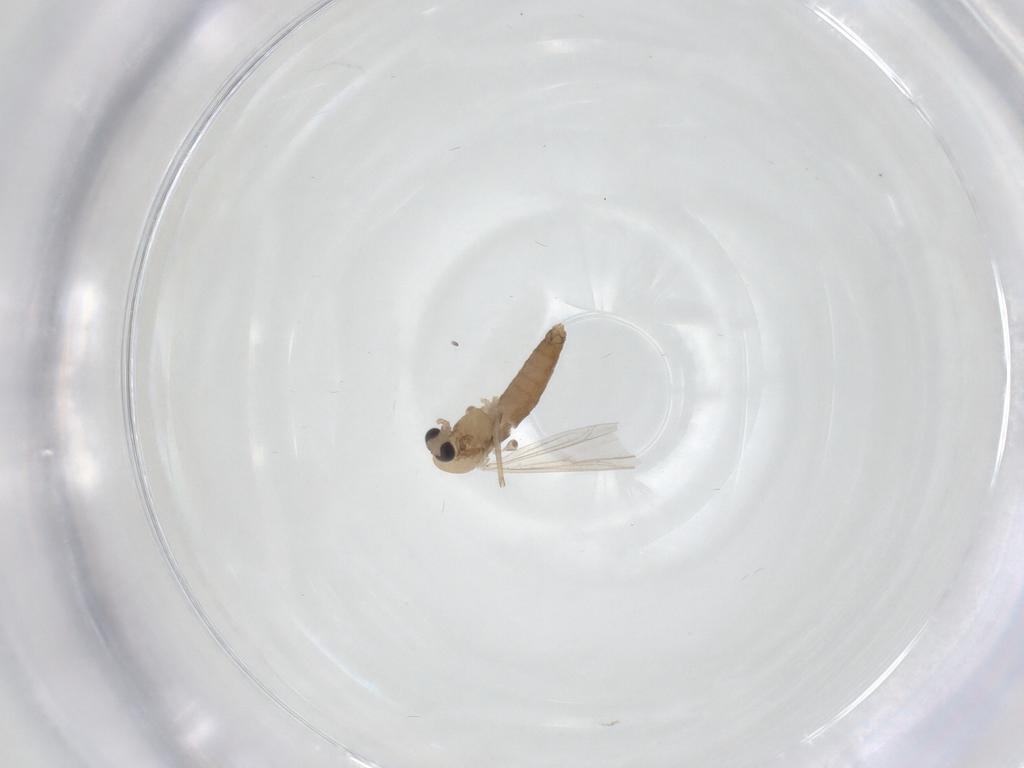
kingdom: Animalia
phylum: Arthropoda
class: Insecta
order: Diptera
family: Chironomidae
